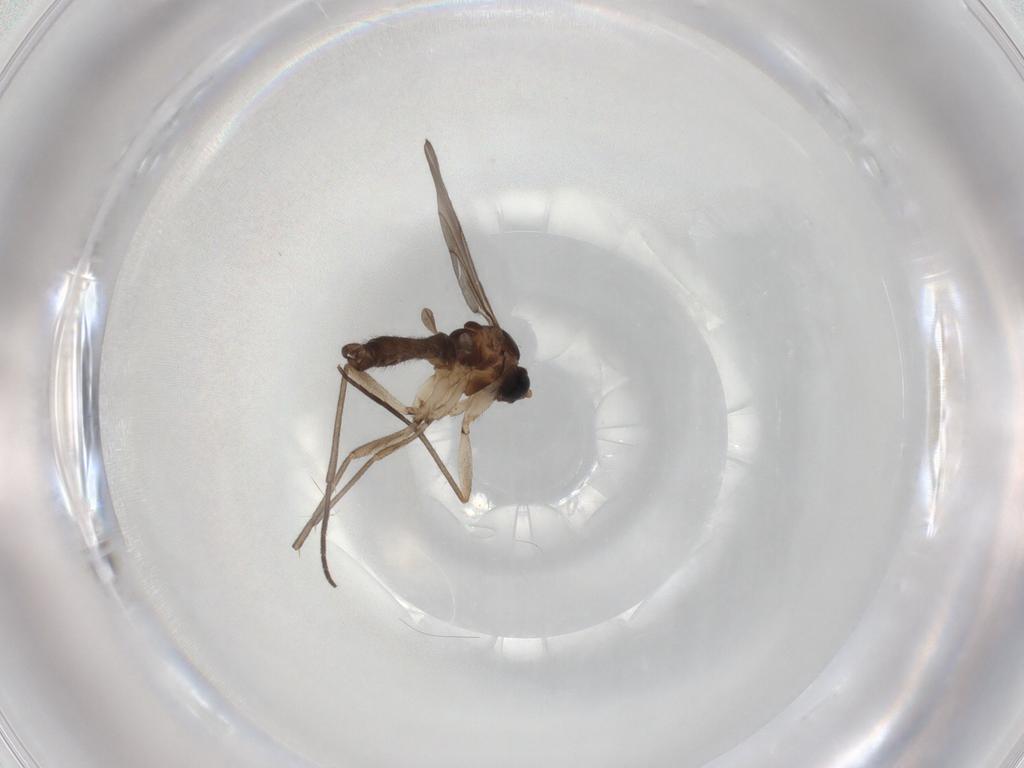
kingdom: Animalia
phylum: Arthropoda
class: Insecta
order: Diptera
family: Sciaridae
